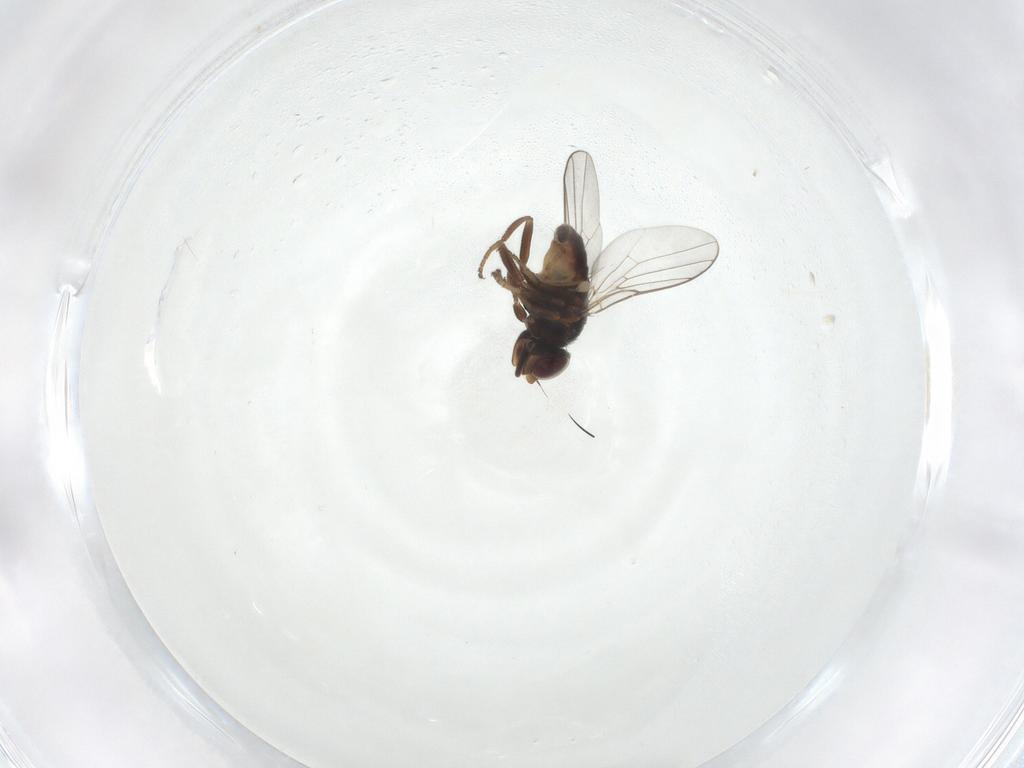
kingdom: Animalia
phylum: Arthropoda
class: Insecta
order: Diptera
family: Chloropidae
